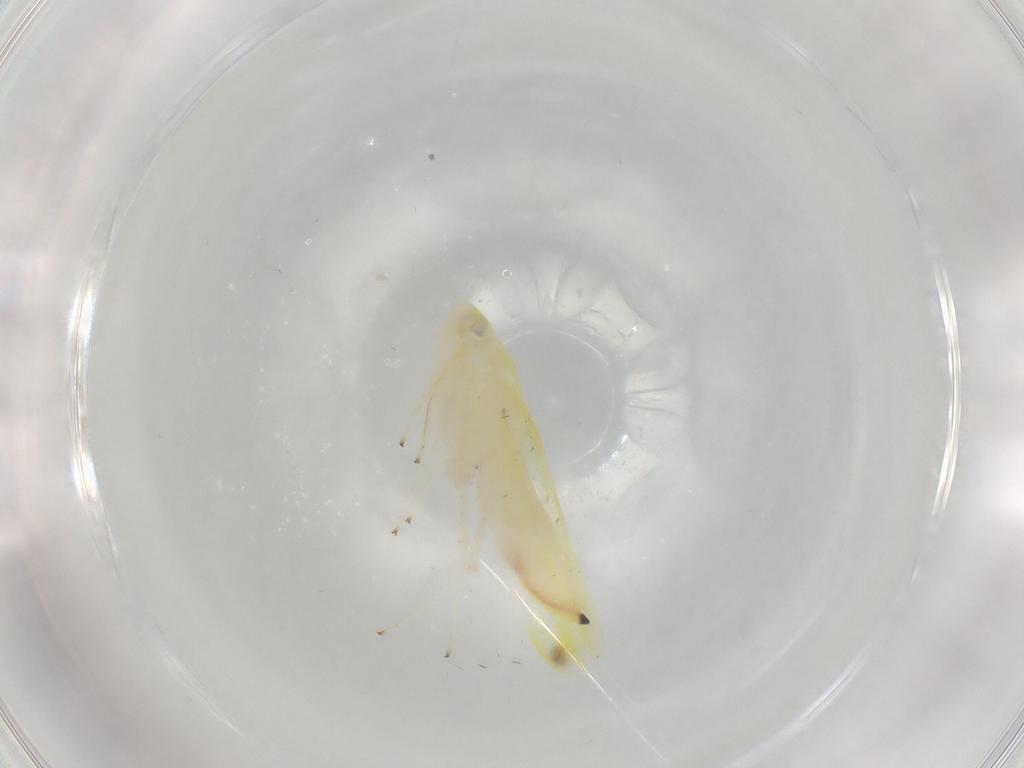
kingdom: Animalia
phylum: Arthropoda
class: Insecta
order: Hemiptera
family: Cicadellidae
